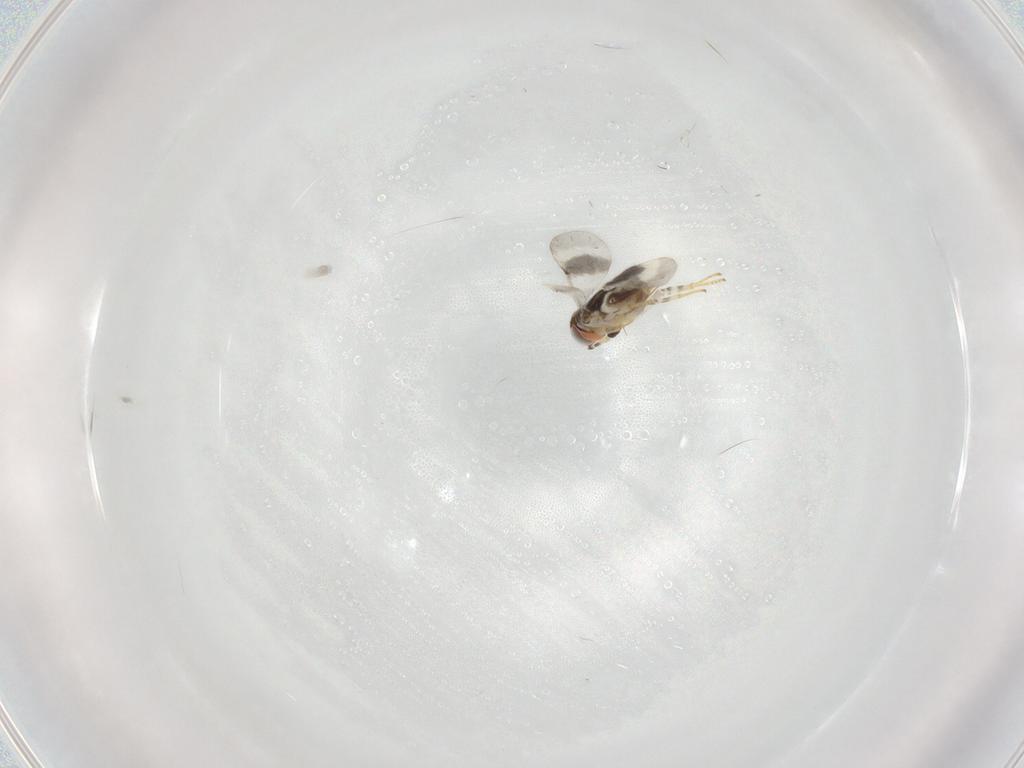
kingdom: Animalia
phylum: Arthropoda
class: Insecta
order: Hymenoptera
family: Encyrtidae
